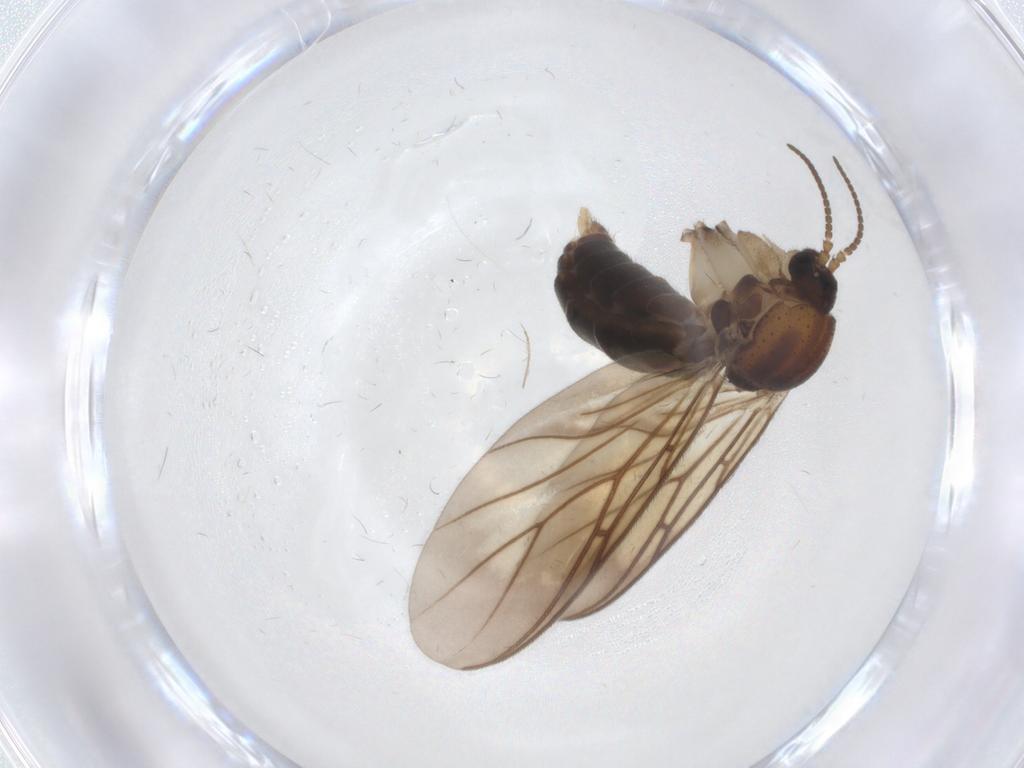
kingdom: Animalia
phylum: Arthropoda
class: Insecta
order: Diptera
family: Mycetophilidae
